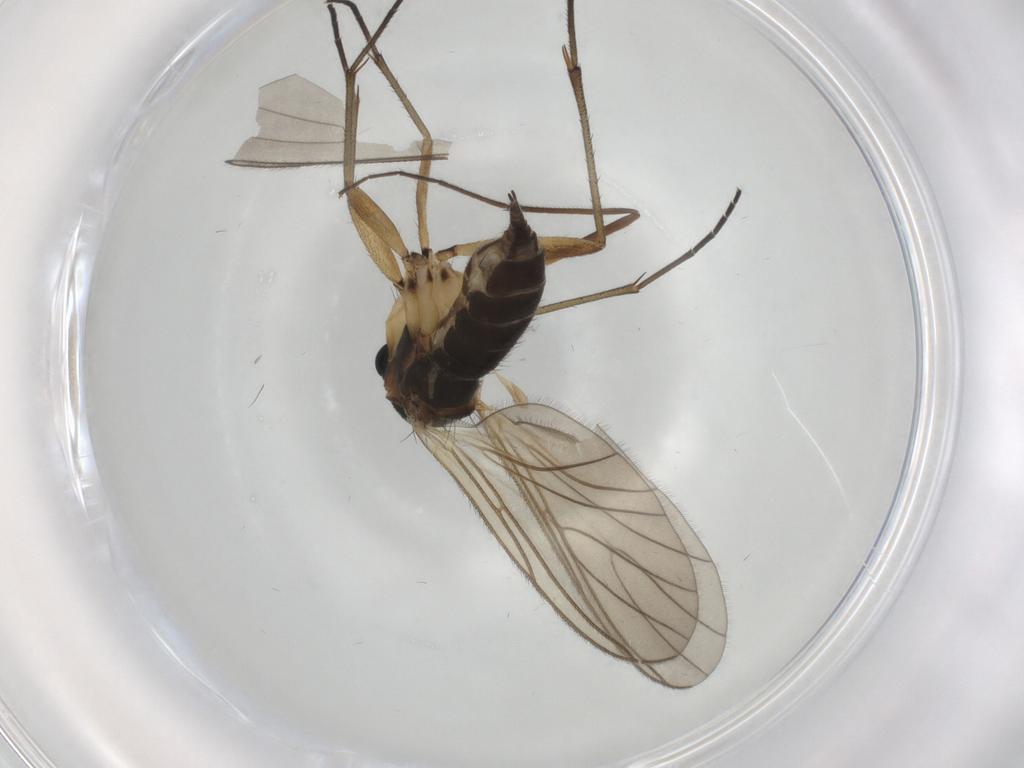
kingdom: Animalia
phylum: Arthropoda
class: Insecta
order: Diptera
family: Sciaridae
